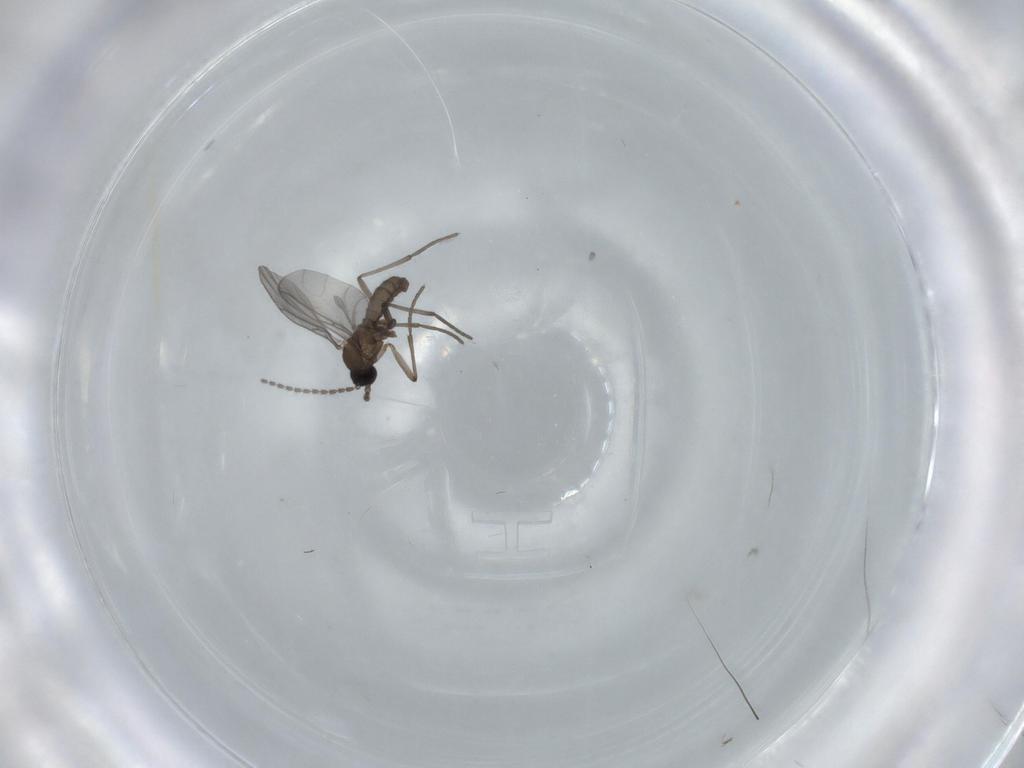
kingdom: Animalia
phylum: Arthropoda
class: Insecta
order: Diptera
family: Sciaridae
